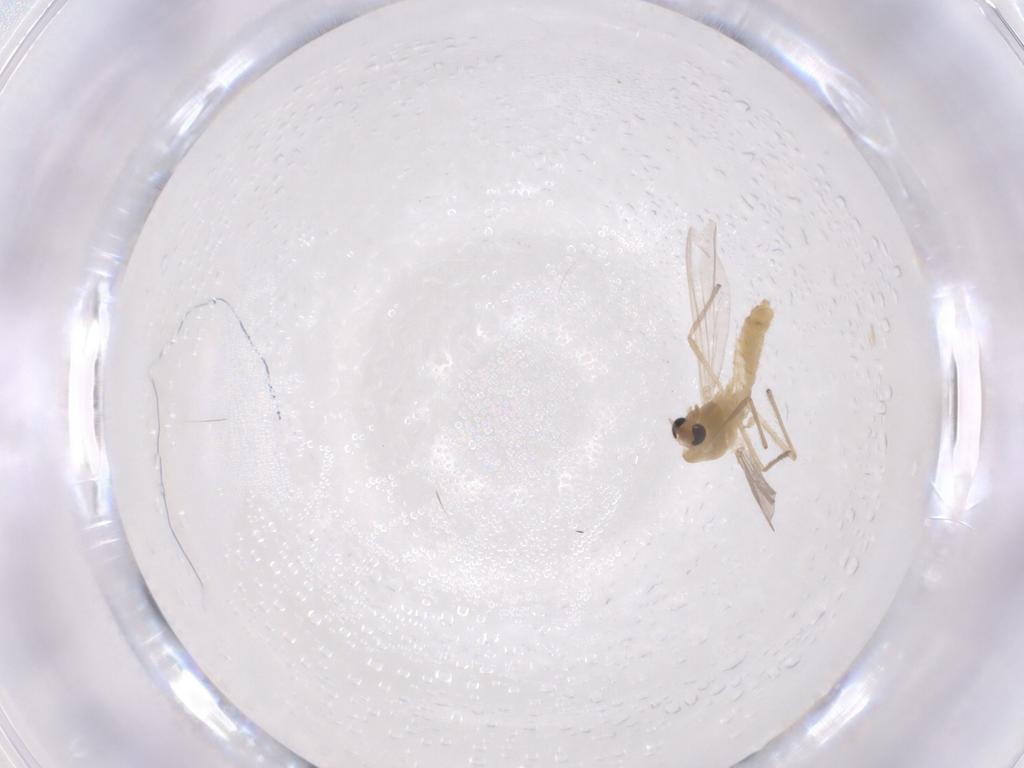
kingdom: Animalia
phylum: Arthropoda
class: Insecta
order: Diptera
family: Chironomidae
